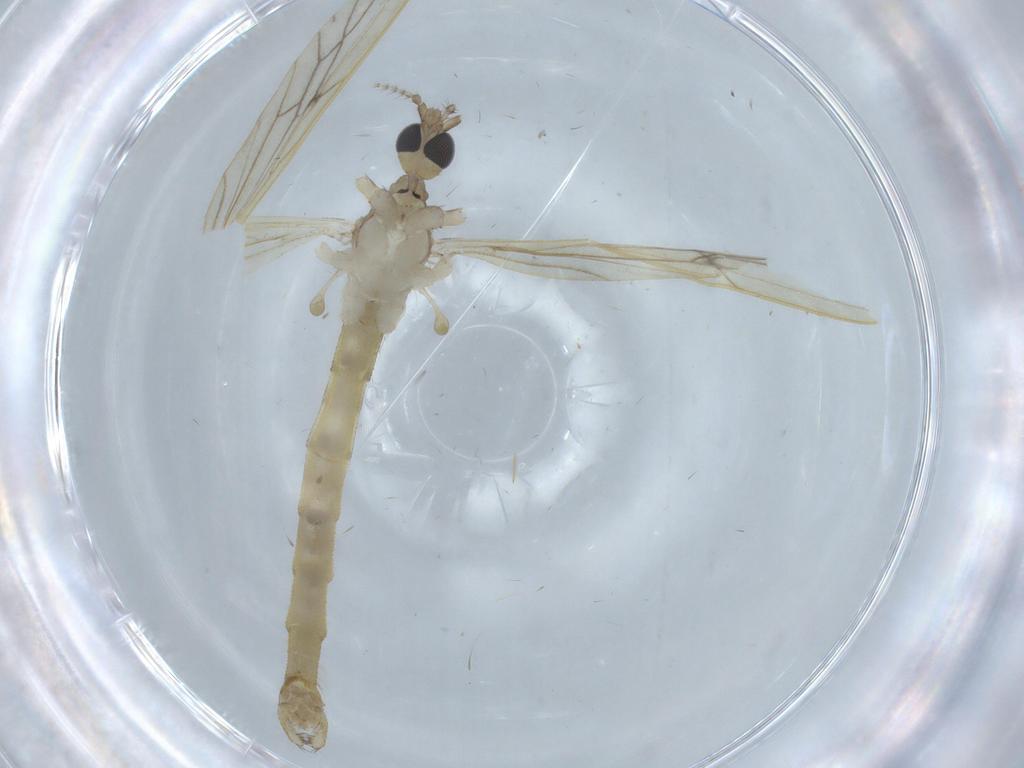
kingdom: Animalia
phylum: Arthropoda
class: Insecta
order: Diptera
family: Limoniidae
